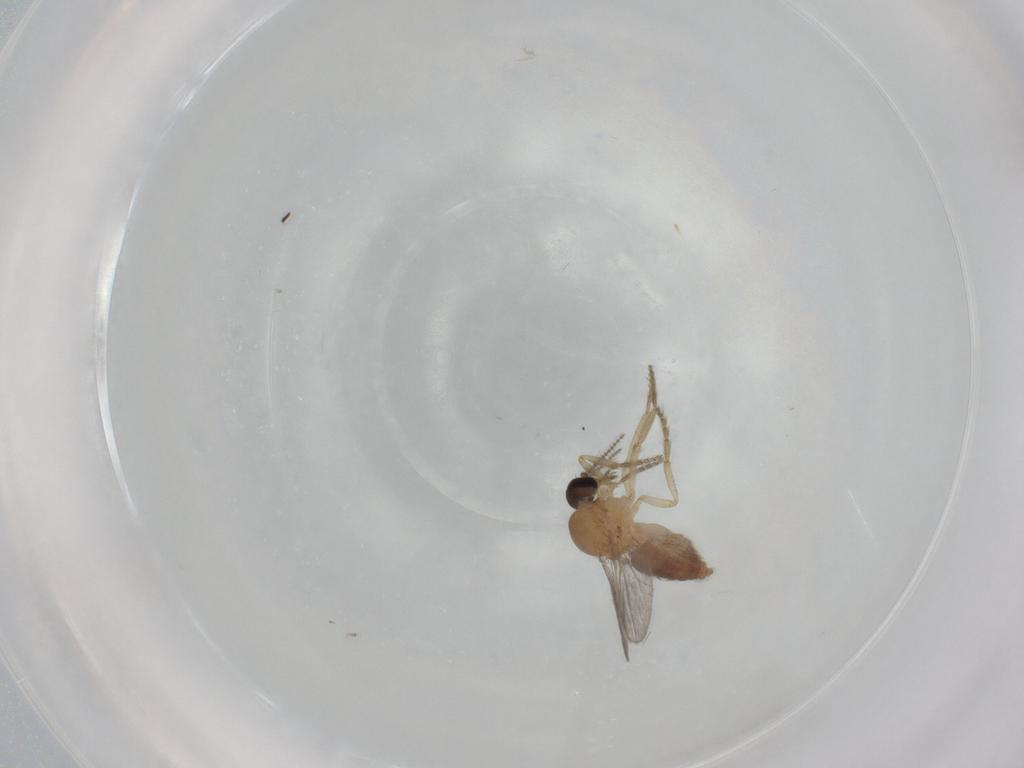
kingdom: Animalia
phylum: Arthropoda
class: Insecta
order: Diptera
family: Ceratopogonidae
